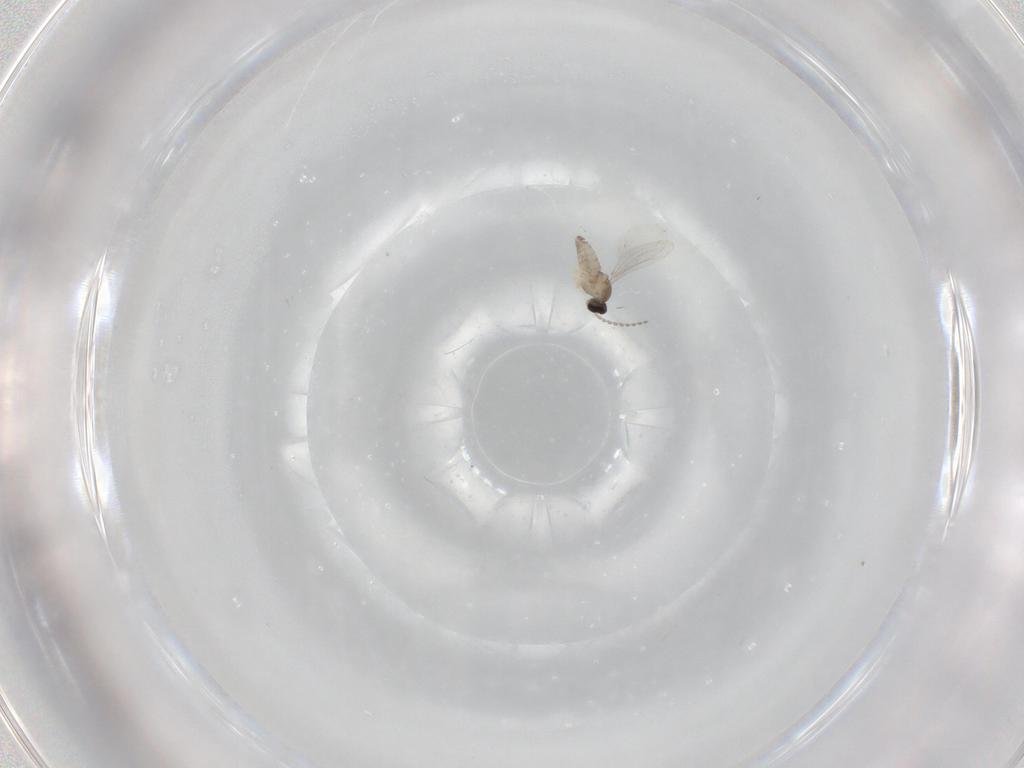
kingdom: Animalia
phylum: Arthropoda
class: Insecta
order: Diptera
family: Cecidomyiidae
